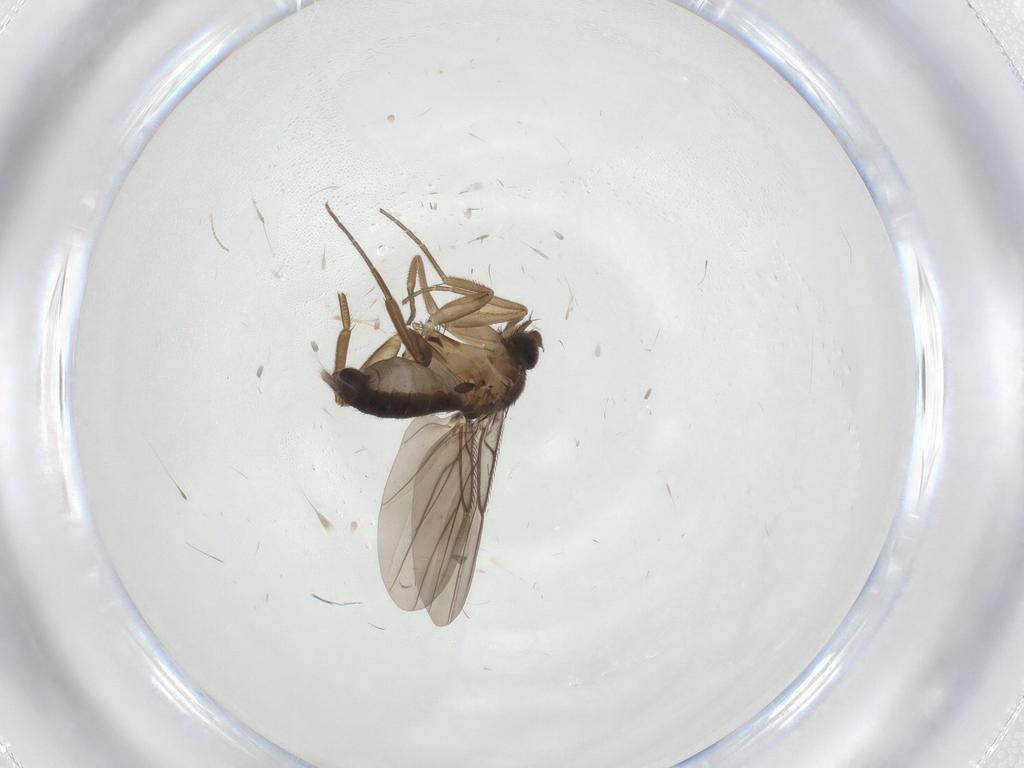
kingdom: Animalia
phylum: Arthropoda
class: Insecta
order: Diptera
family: Phoridae
